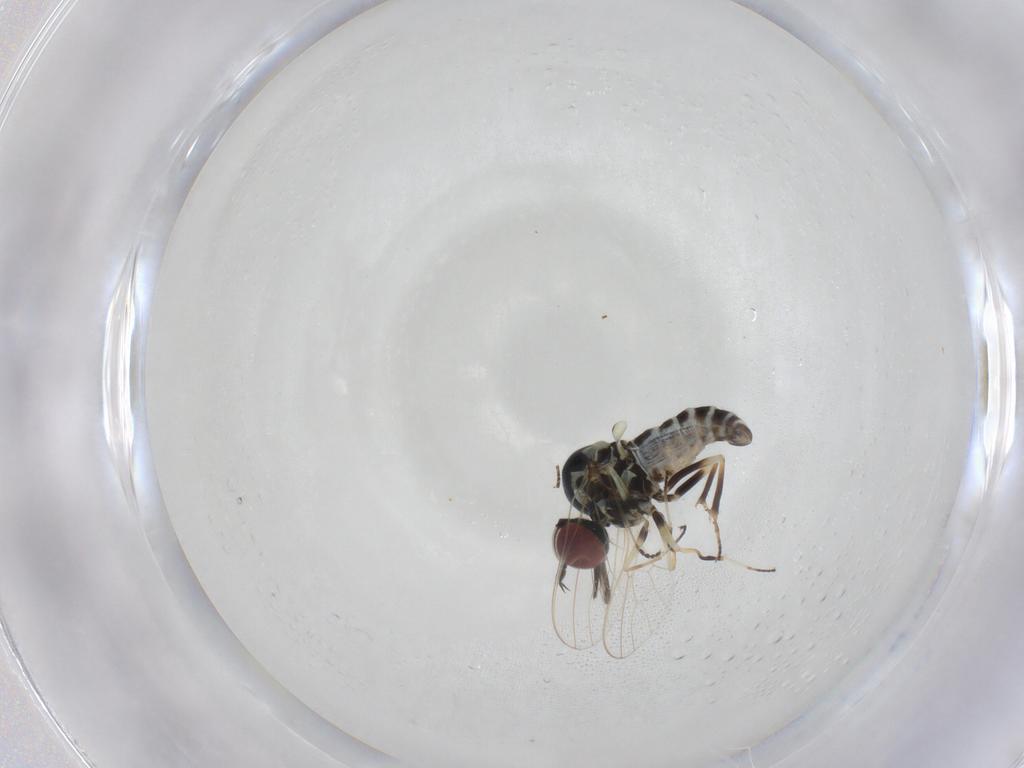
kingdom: Animalia
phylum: Arthropoda
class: Insecta
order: Diptera
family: Bombyliidae
